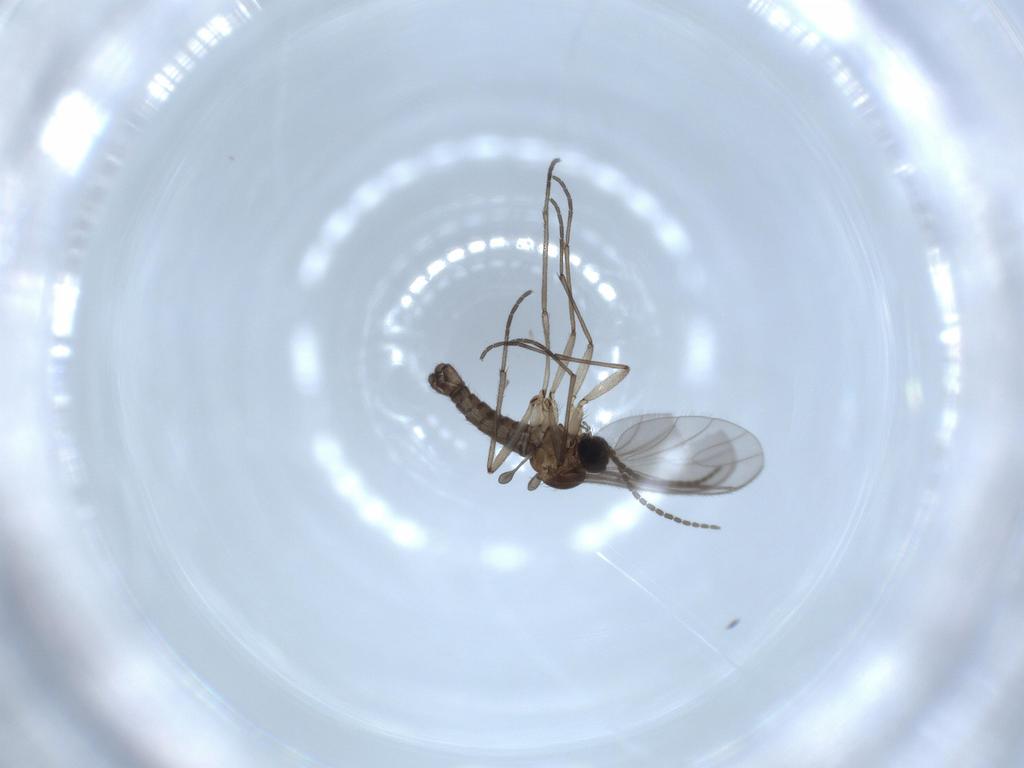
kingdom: Animalia
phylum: Arthropoda
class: Insecta
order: Diptera
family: Sciaridae
